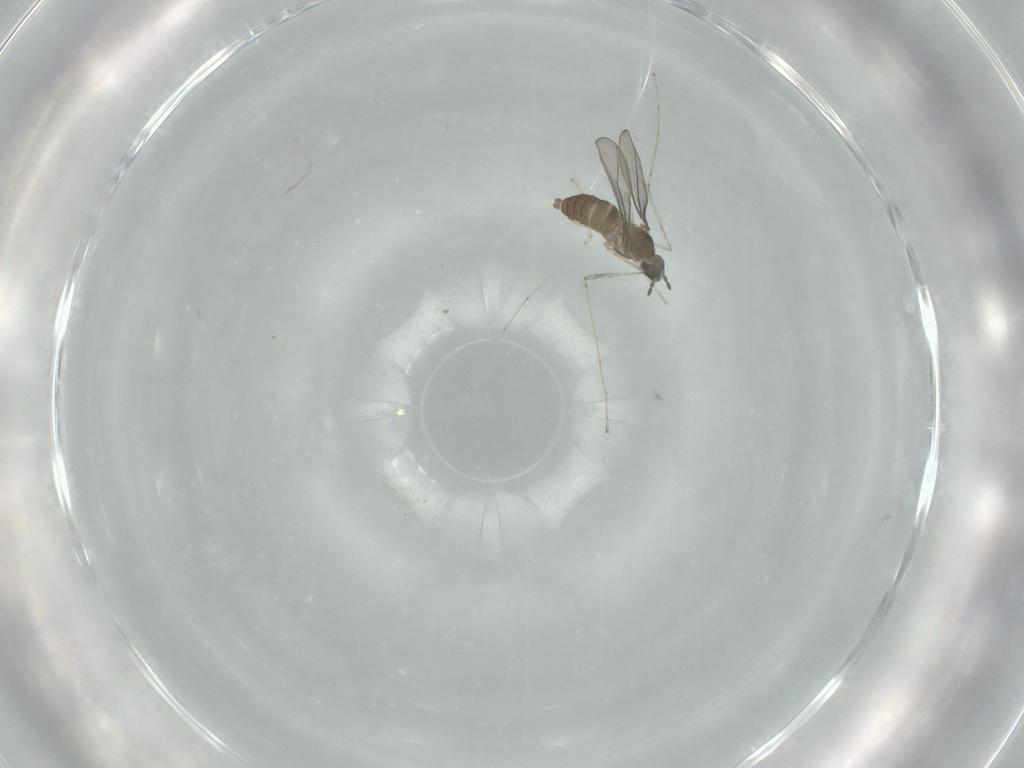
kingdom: Animalia
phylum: Arthropoda
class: Insecta
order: Diptera
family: Cecidomyiidae
